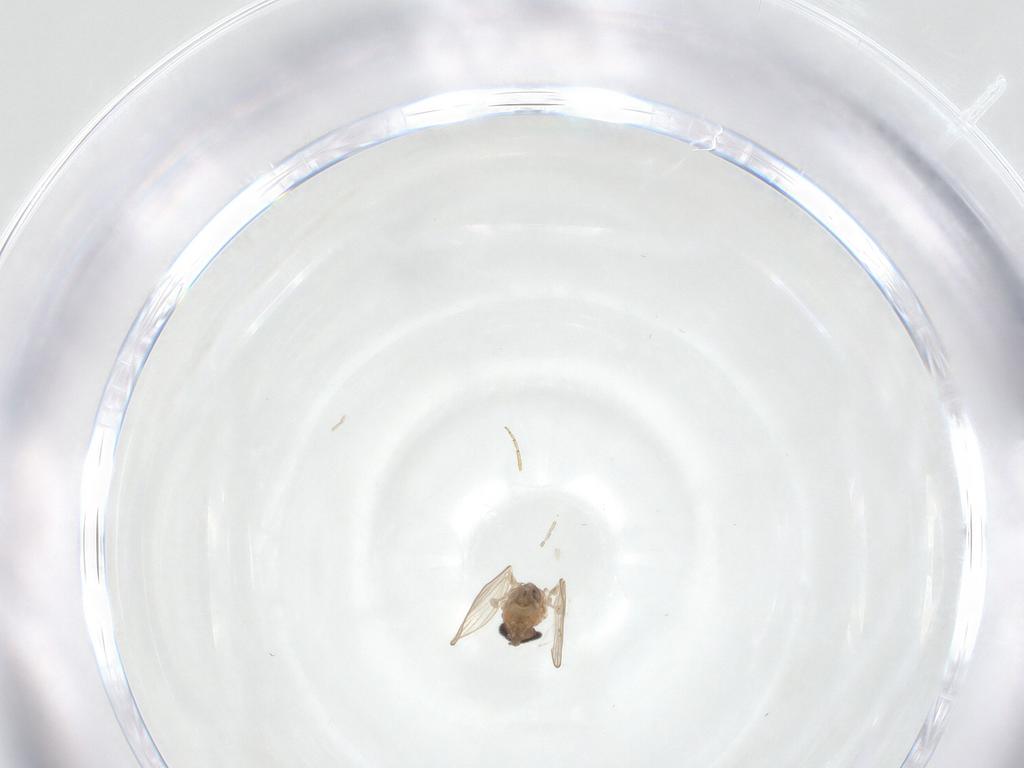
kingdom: Animalia
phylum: Arthropoda
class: Insecta
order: Diptera
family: Psychodidae
